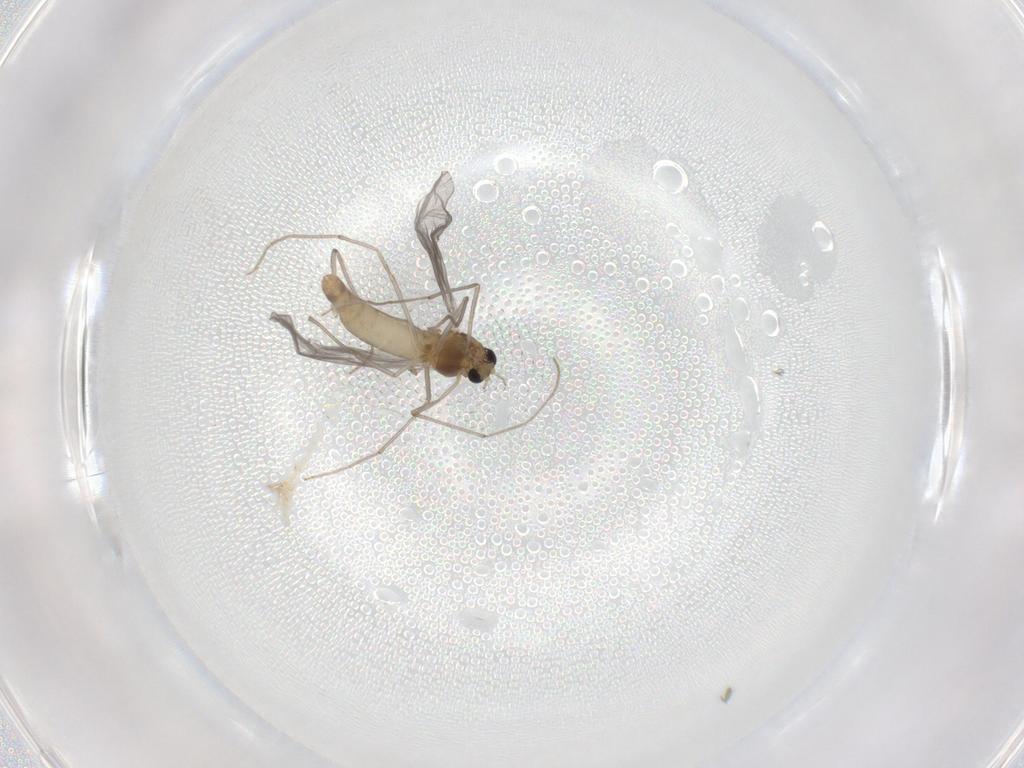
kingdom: Animalia
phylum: Arthropoda
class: Insecta
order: Diptera
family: Chironomidae
